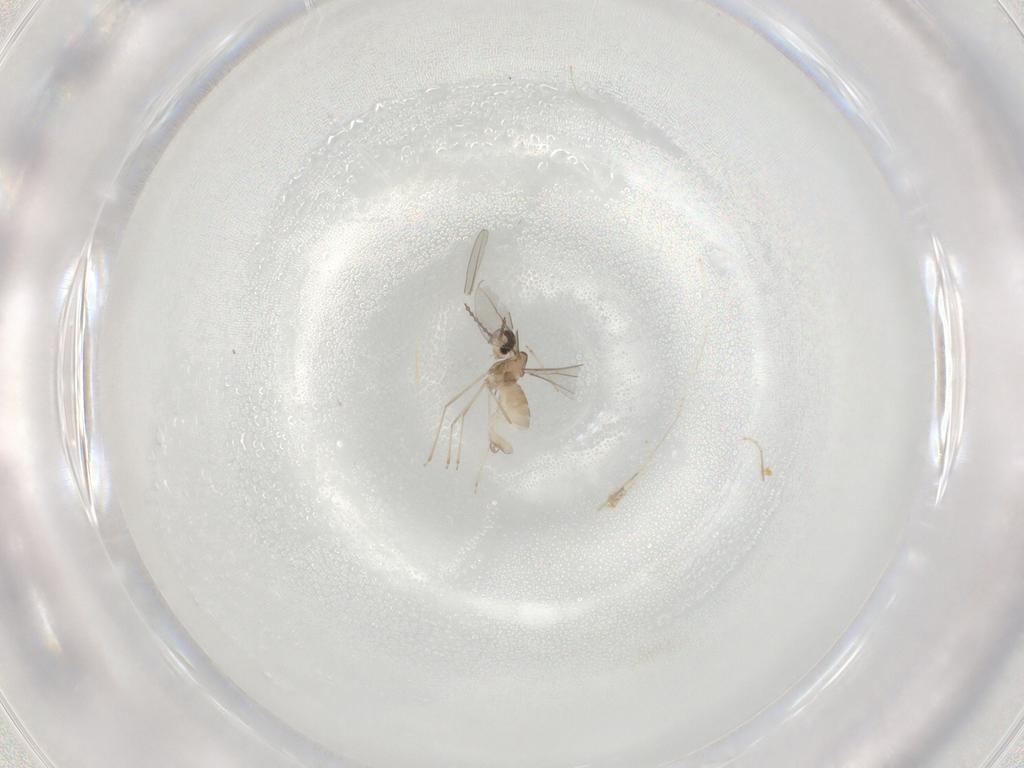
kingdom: Animalia
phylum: Arthropoda
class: Insecta
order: Diptera
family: Cecidomyiidae
